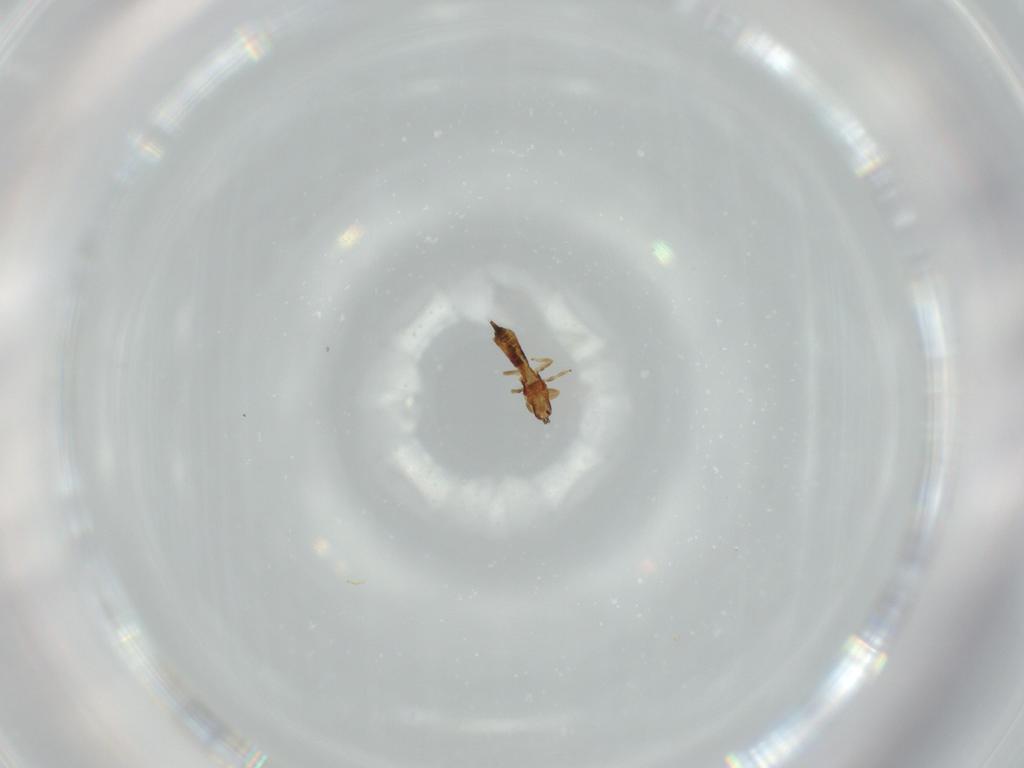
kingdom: Animalia
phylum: Arthropoda
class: Insecta
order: Thysanoptera
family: Phlaeothripidae
